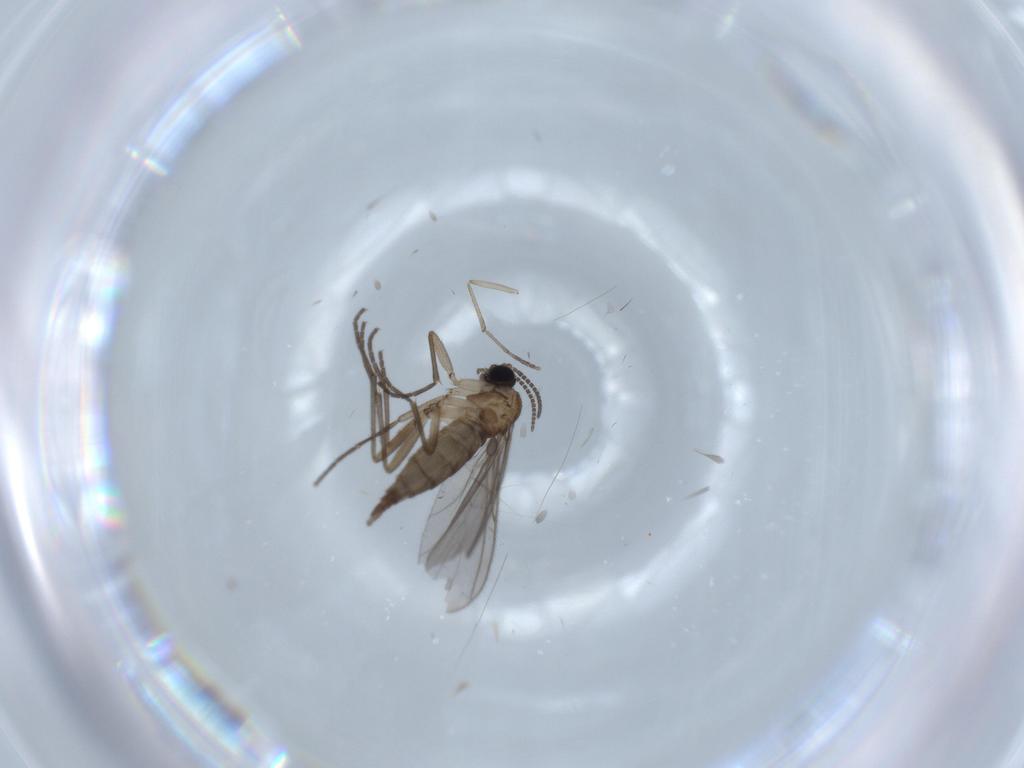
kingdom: Animalia
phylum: Arthropoda
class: Insecta
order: Diptera
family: Sciaridae
